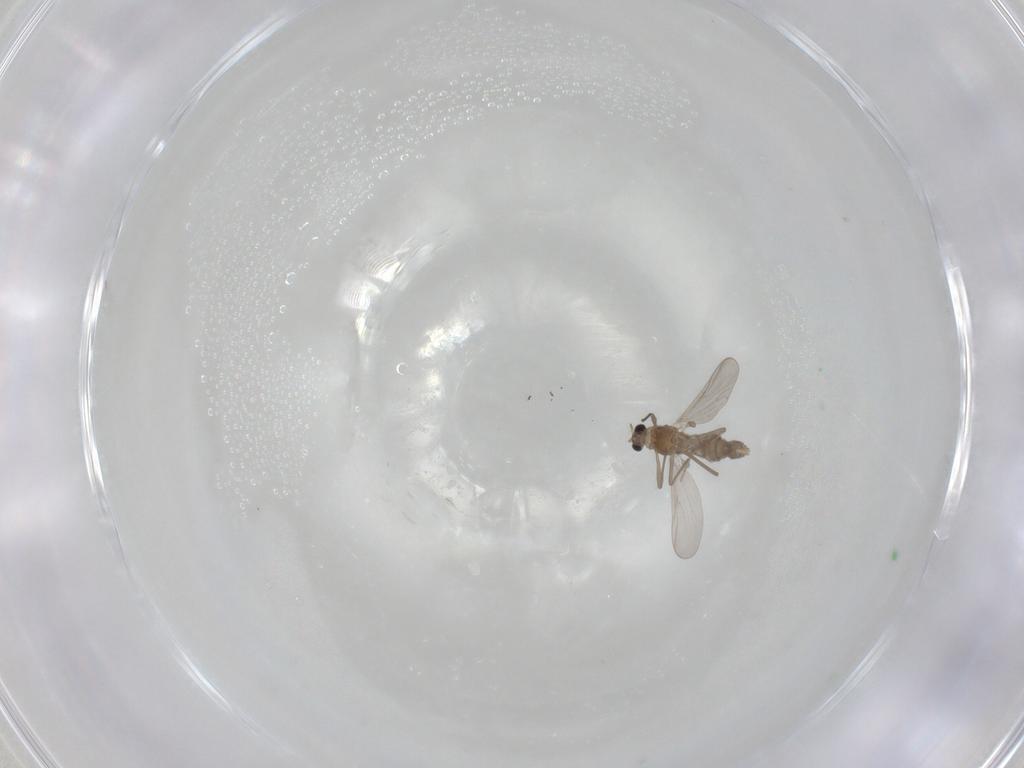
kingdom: Animalia
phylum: Arthropoda
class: Insecta
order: Diptera
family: Chironomidae
